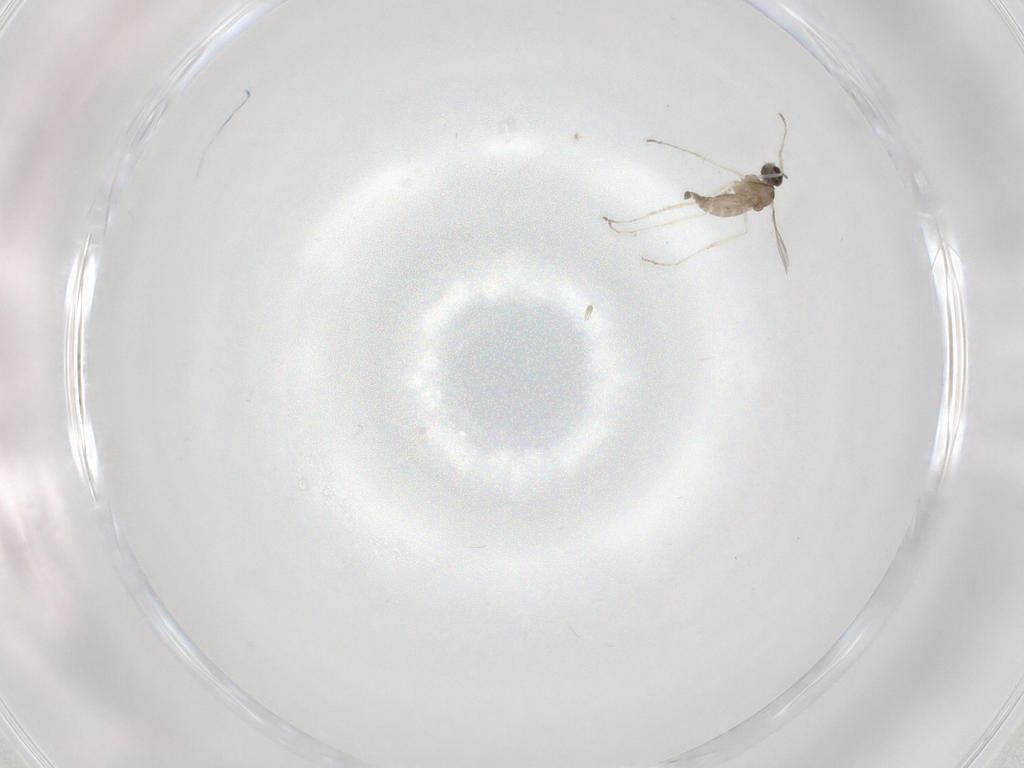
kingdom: Animalia
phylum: Arthropoda
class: Insecta
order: Diptera
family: Cecidomyiidae
